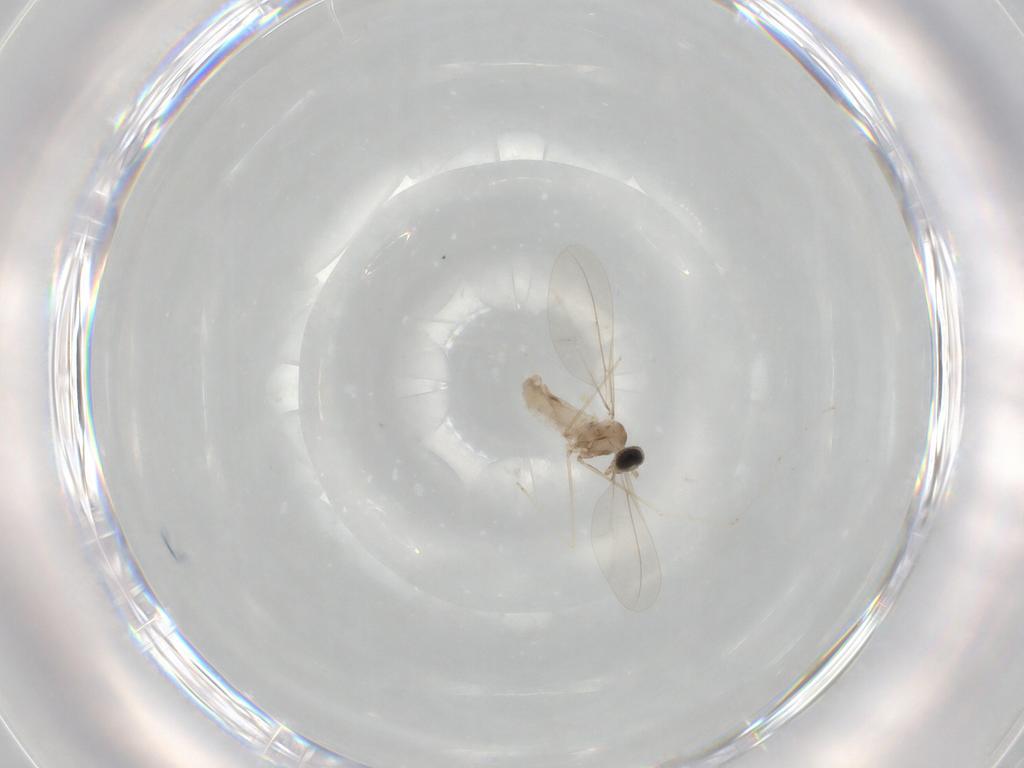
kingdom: Animalia
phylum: Arthropoda
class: Insecta
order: Diptera
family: Cecidomyiidae
